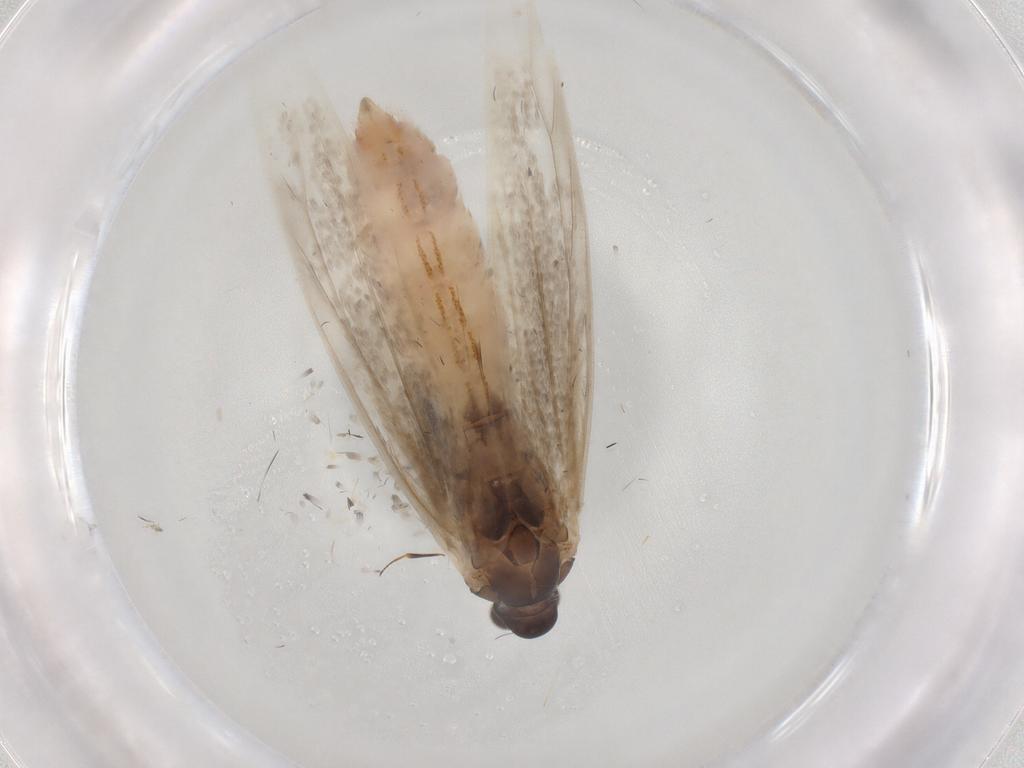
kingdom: Animalia
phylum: Arthropoda
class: Insecta
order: Lepidoptera
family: Coleophoridae
